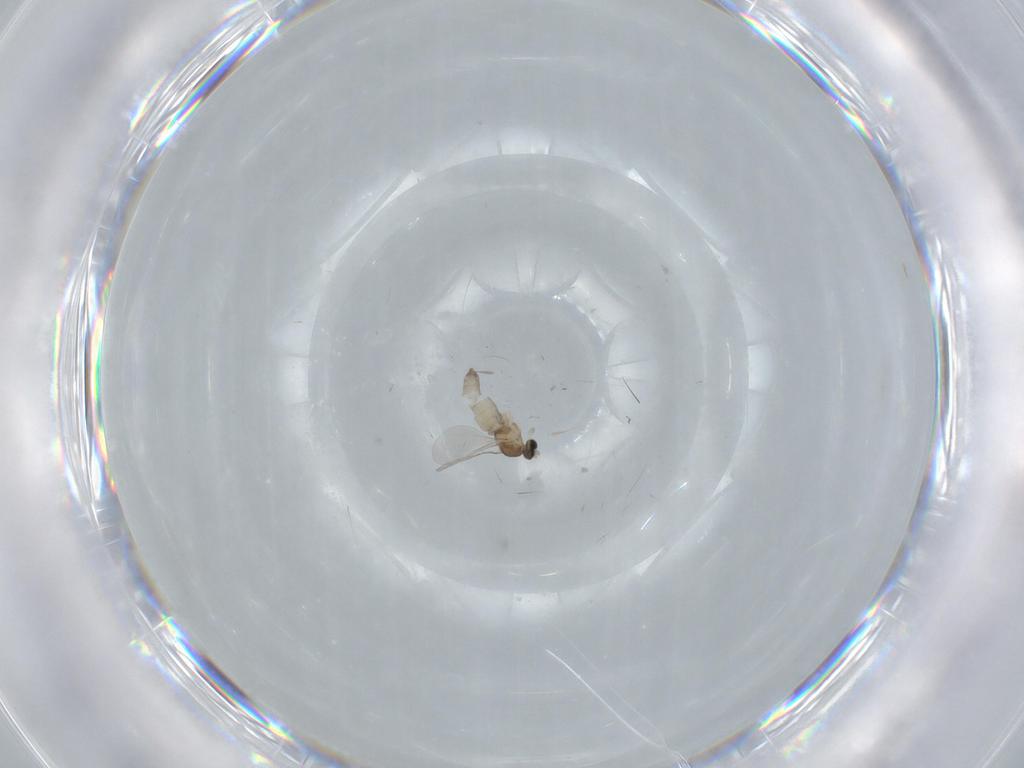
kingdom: Animalia
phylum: Arthropoda
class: Insecta
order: Diptera
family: Cecidomyiidae
